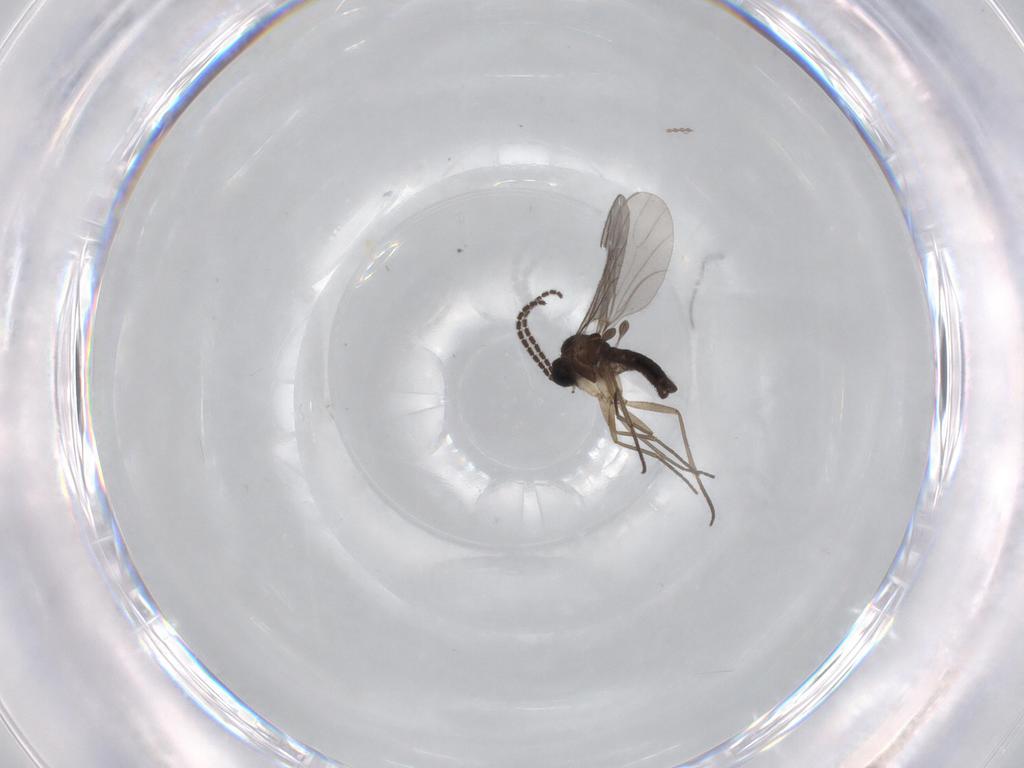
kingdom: Animalia
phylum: Arthropoda
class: Insecta
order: Diptera
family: Sciaridae
